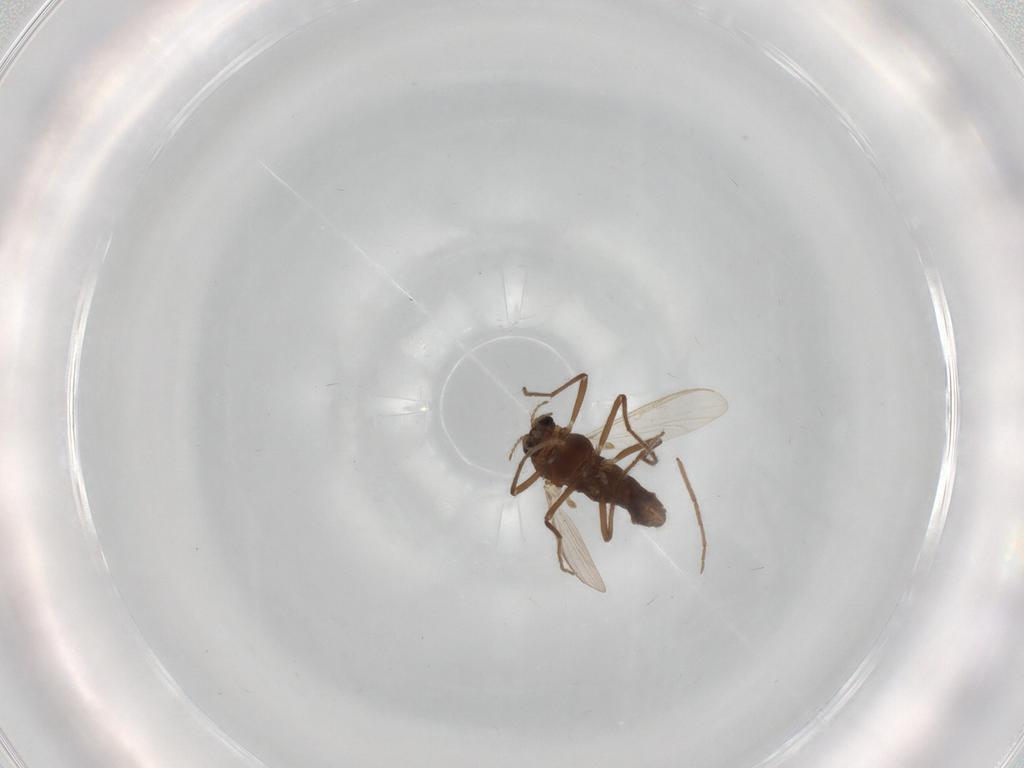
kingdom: Animalia
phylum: Arthropoda
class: Insecta
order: Diptera
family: Chironomidae
